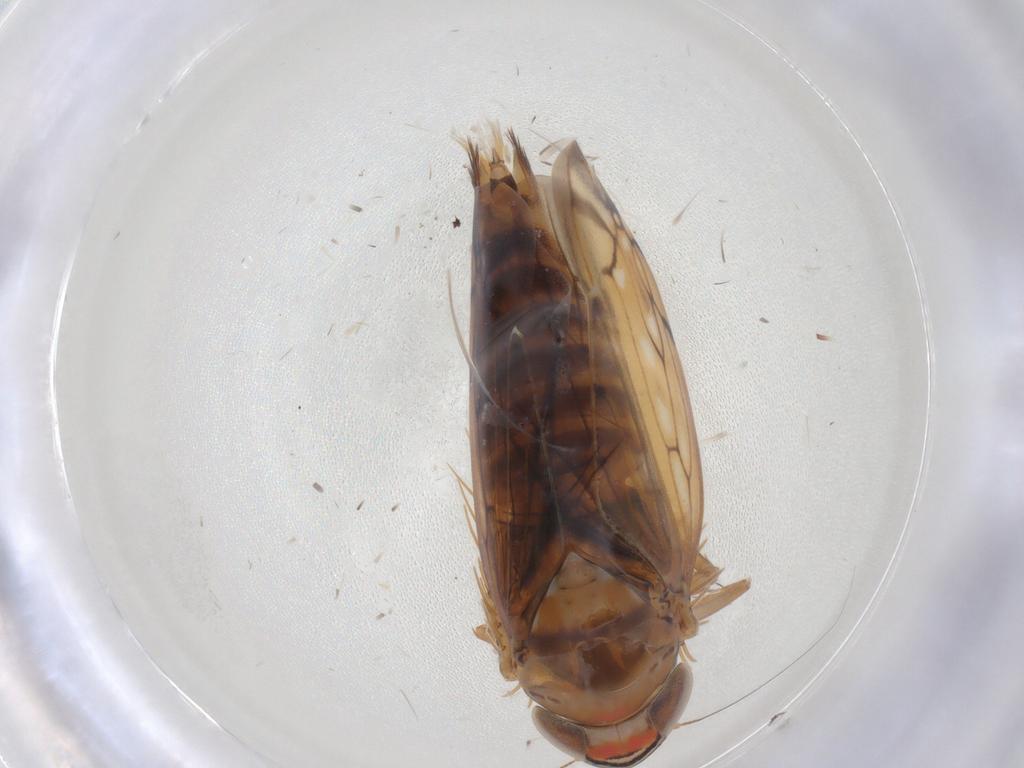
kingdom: Animalia
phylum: Arthropoda
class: Insecta
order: Hemiptera
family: Cicadellidae
